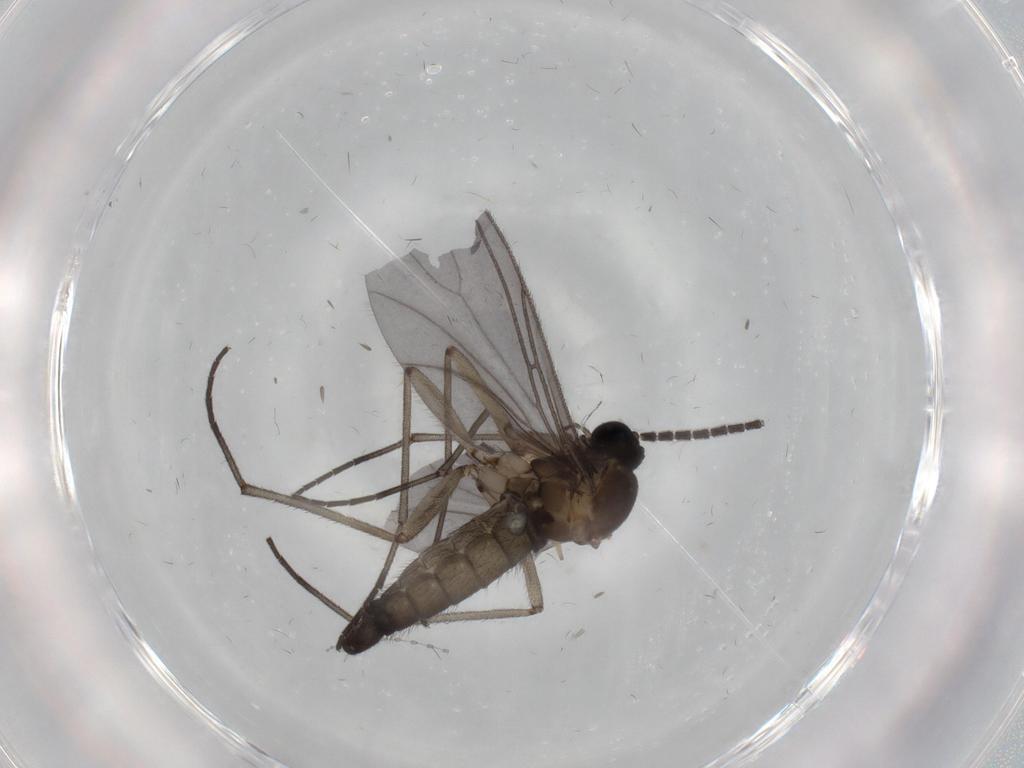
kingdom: Animalia
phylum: Arthropoda
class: Insecta
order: Diptera
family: Sciaridae
